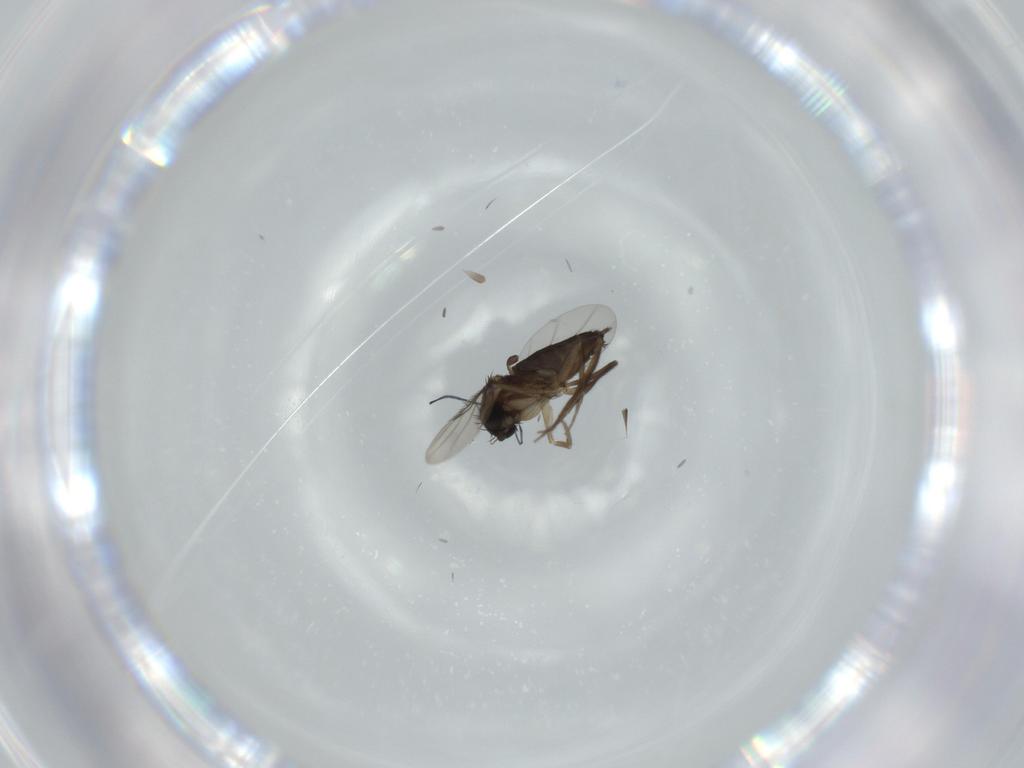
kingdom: Animalia
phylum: Arthropoda
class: Insecta
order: Diptera
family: Phoridae
